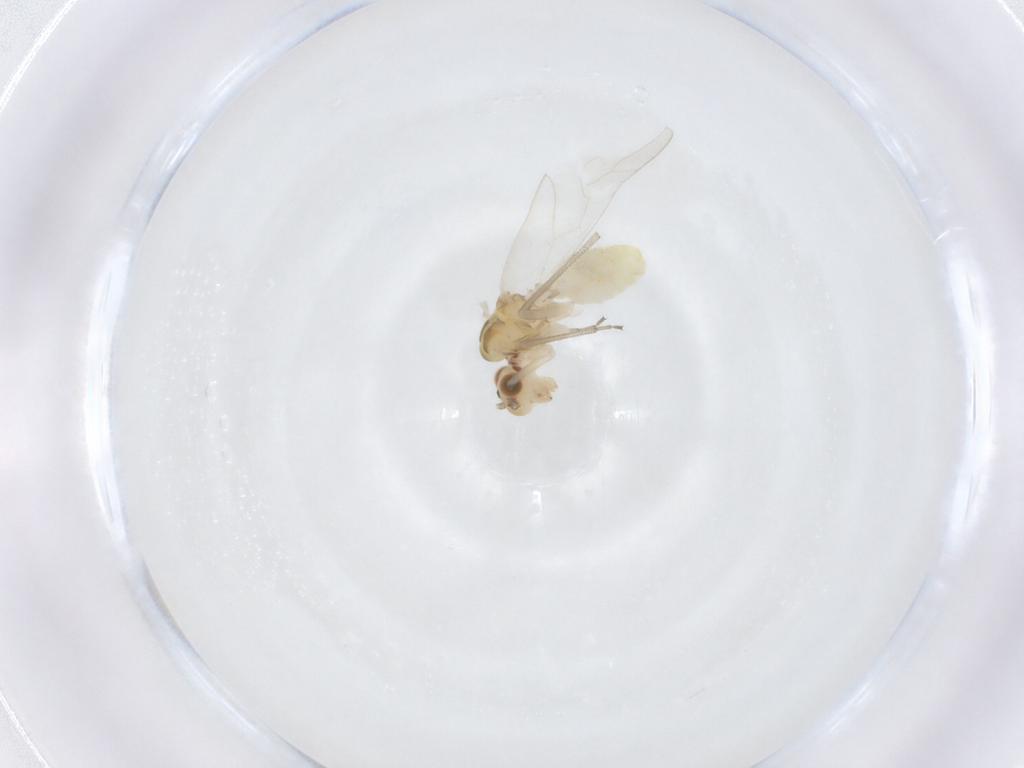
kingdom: Animalia
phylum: Arthropoda
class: Insecta
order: Psocodea
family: Caeciliusidae
